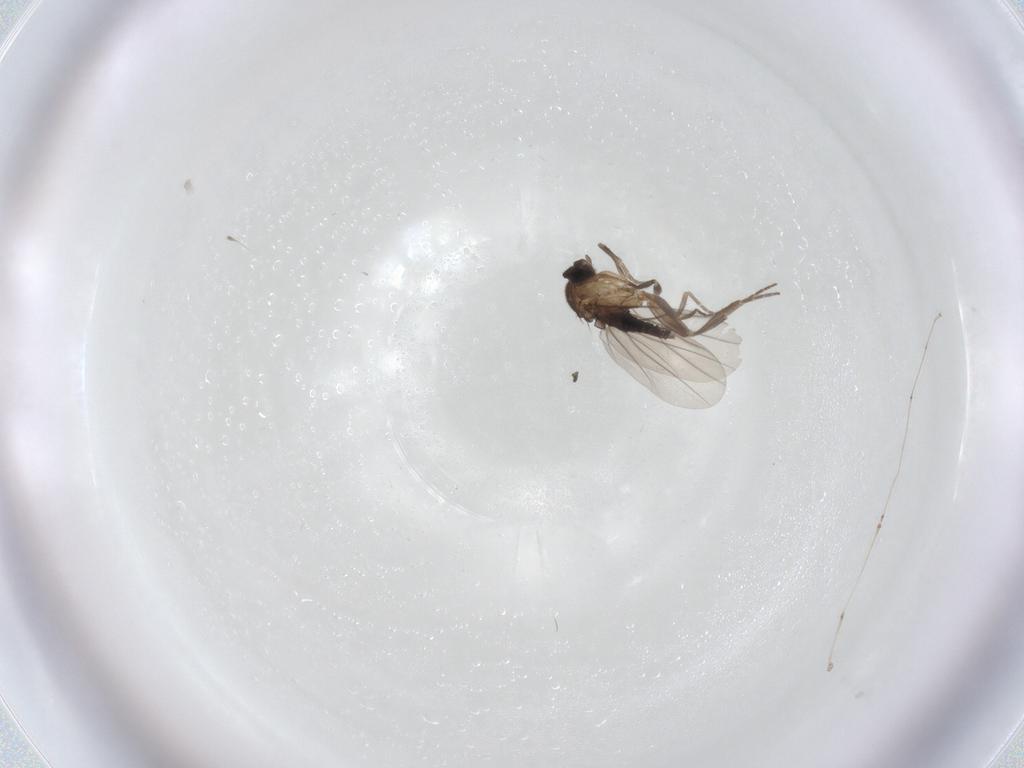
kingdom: Animalia
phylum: Arthropoda
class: Insecta
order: Diptera
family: Cecidomyiidae
